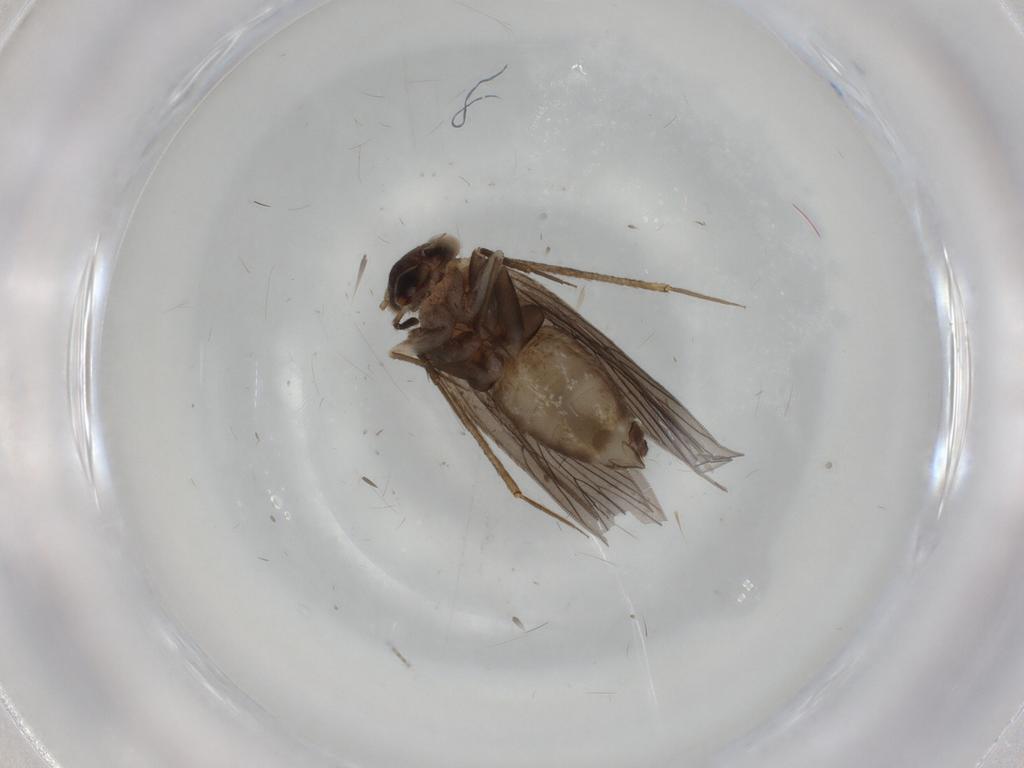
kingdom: Animalia
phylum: Arthropoda
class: Insecta
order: Psocodea
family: Lepidopsocidae
